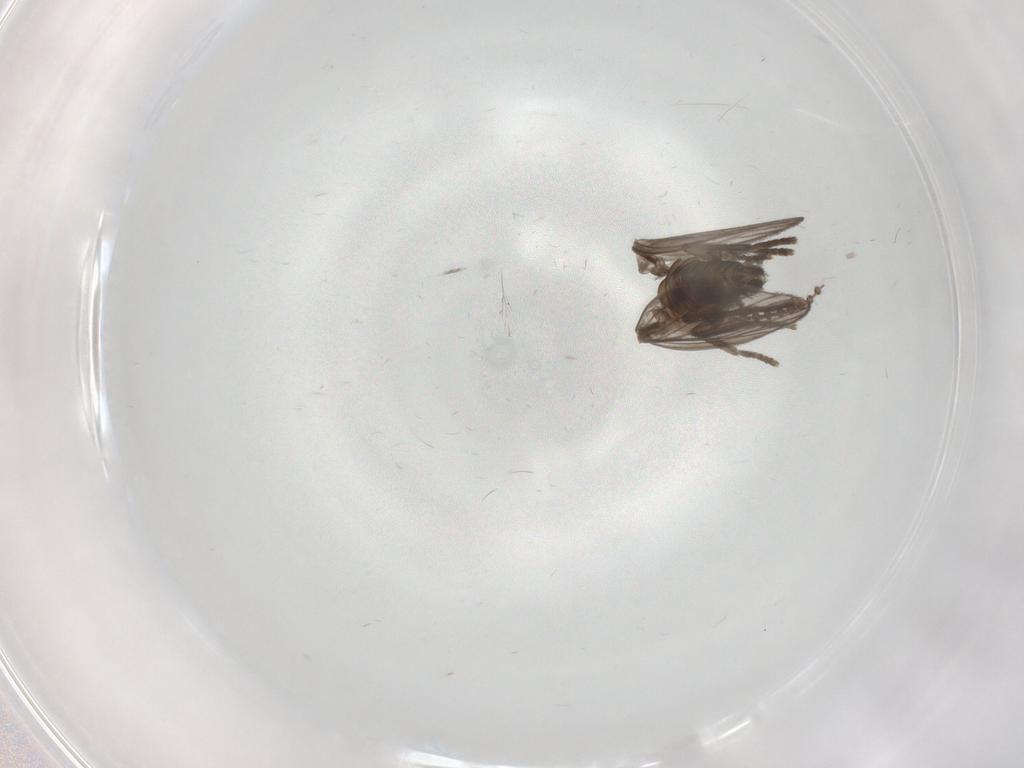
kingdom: Animalia
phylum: Arthropoda
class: Insecta
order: Diptera
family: Psychodidae
